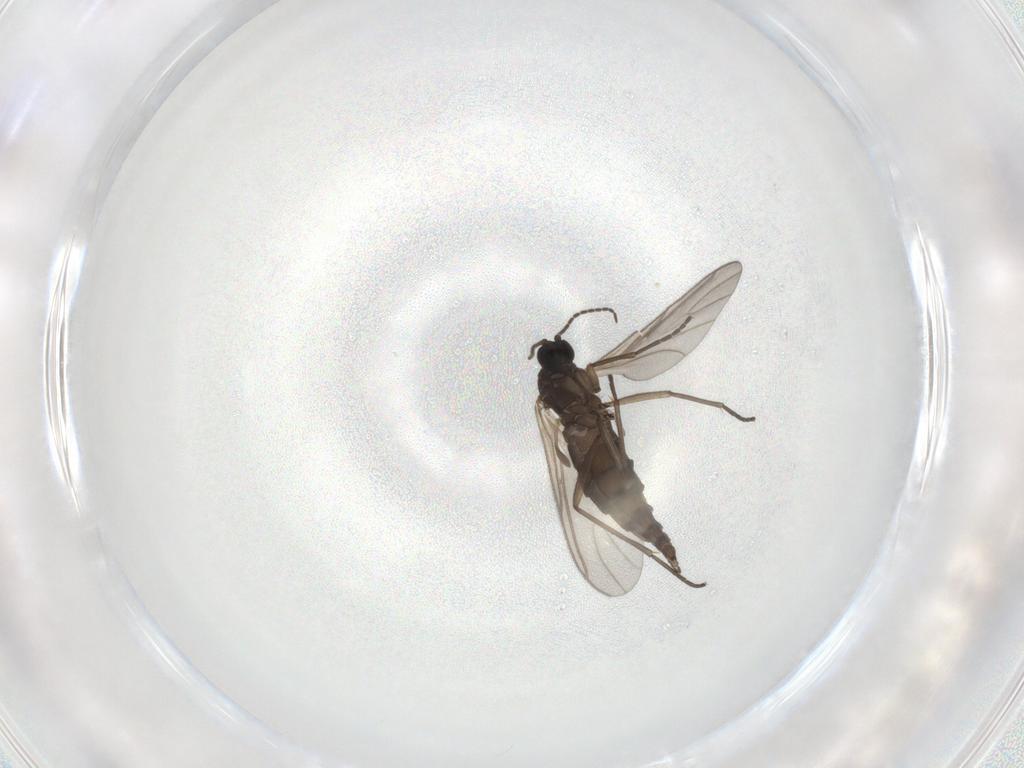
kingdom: Animalia
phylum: Arthropoda
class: Insecta
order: Diptera
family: Sciaridae
